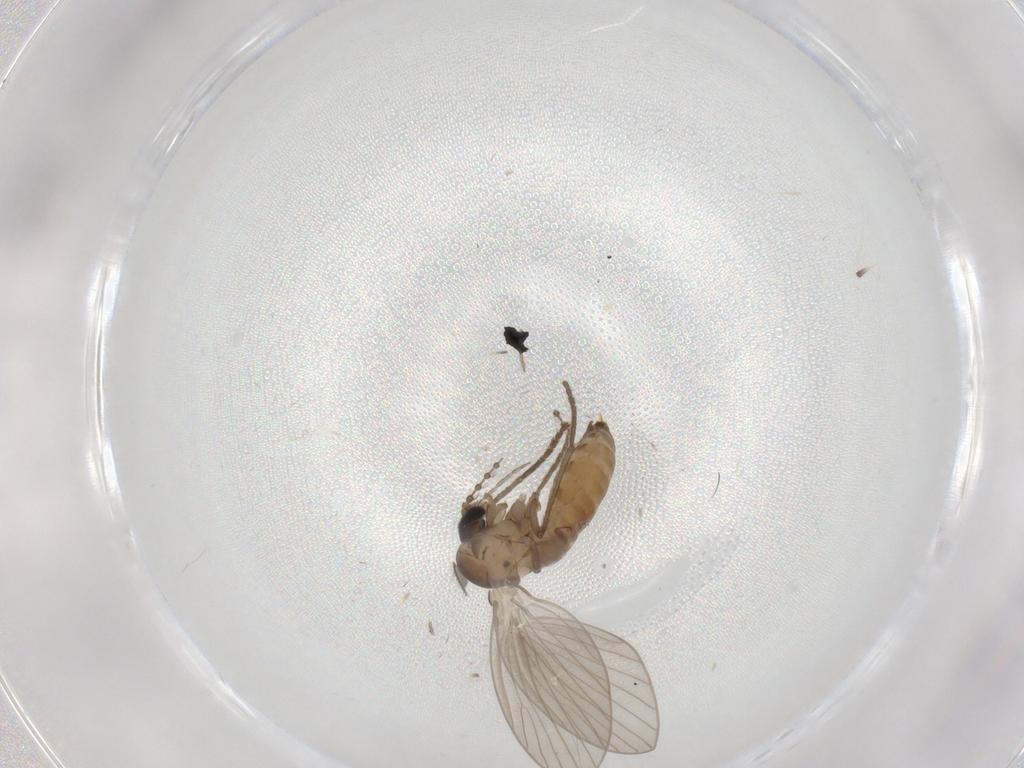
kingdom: Animalia
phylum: Arthropoda
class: Insecta
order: Diptera
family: Psychodidae
